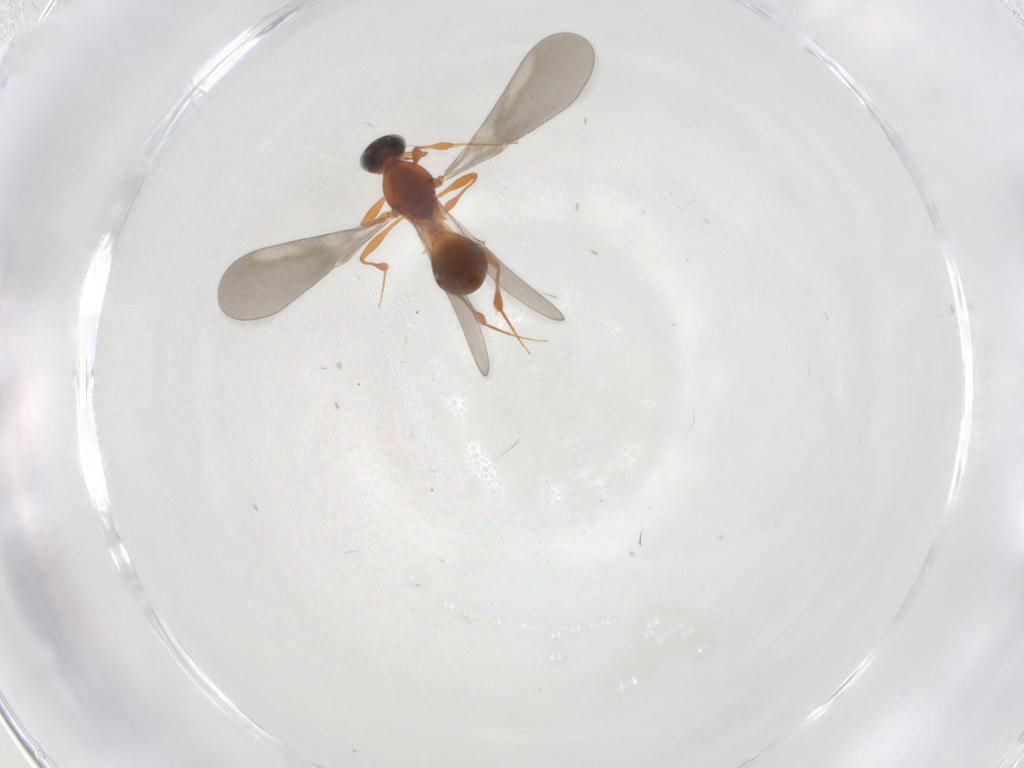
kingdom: Animalia
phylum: Arthropoda
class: Insecta
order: Hymenoptera
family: Platygastridae
